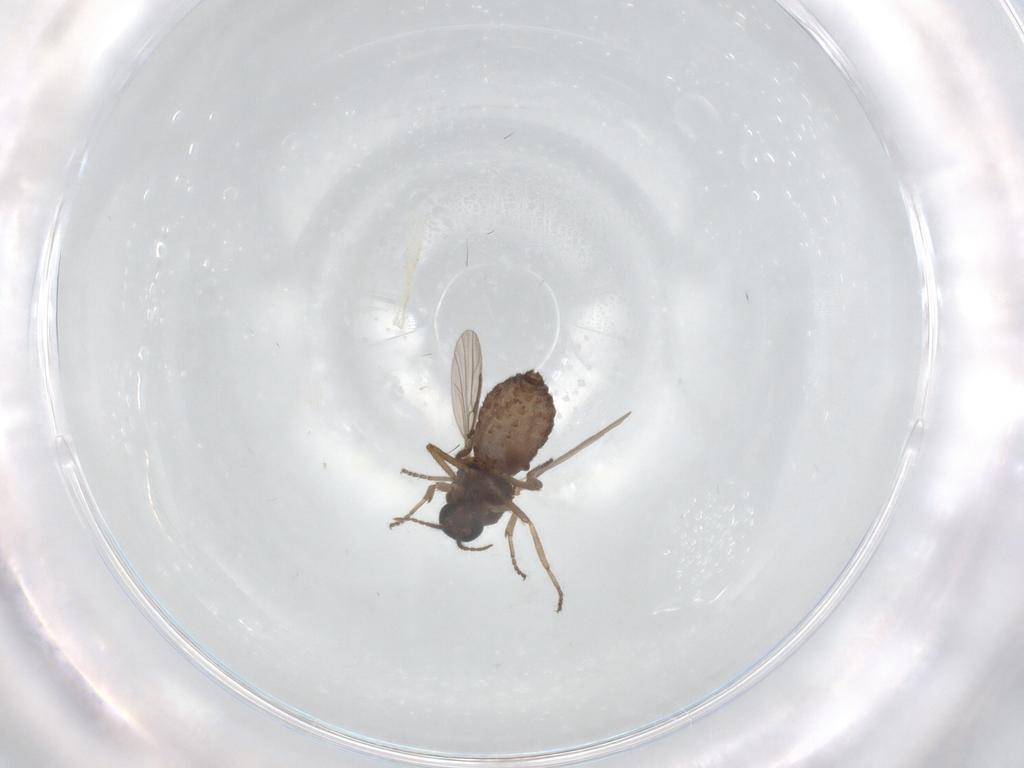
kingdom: Animalia
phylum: Arthropoda
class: Insecta
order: Diptera
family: Ceratopogonidae
